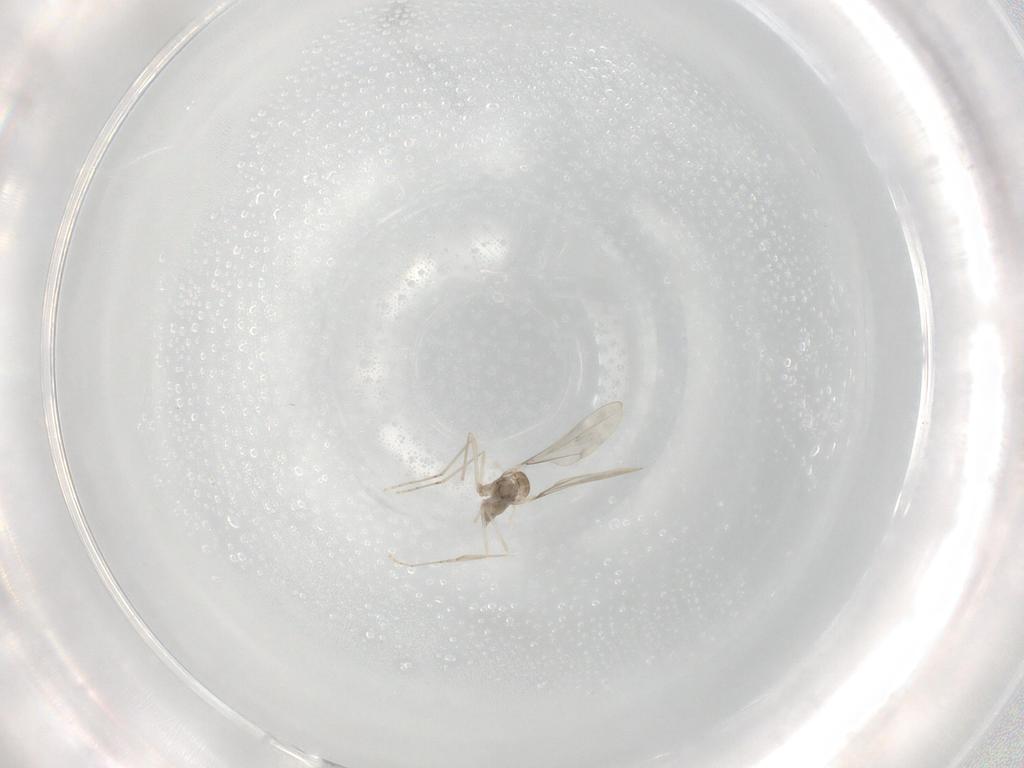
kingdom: Animalia
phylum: Arthropoda
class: Insecta
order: Diptera
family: Cecidomyiidae
